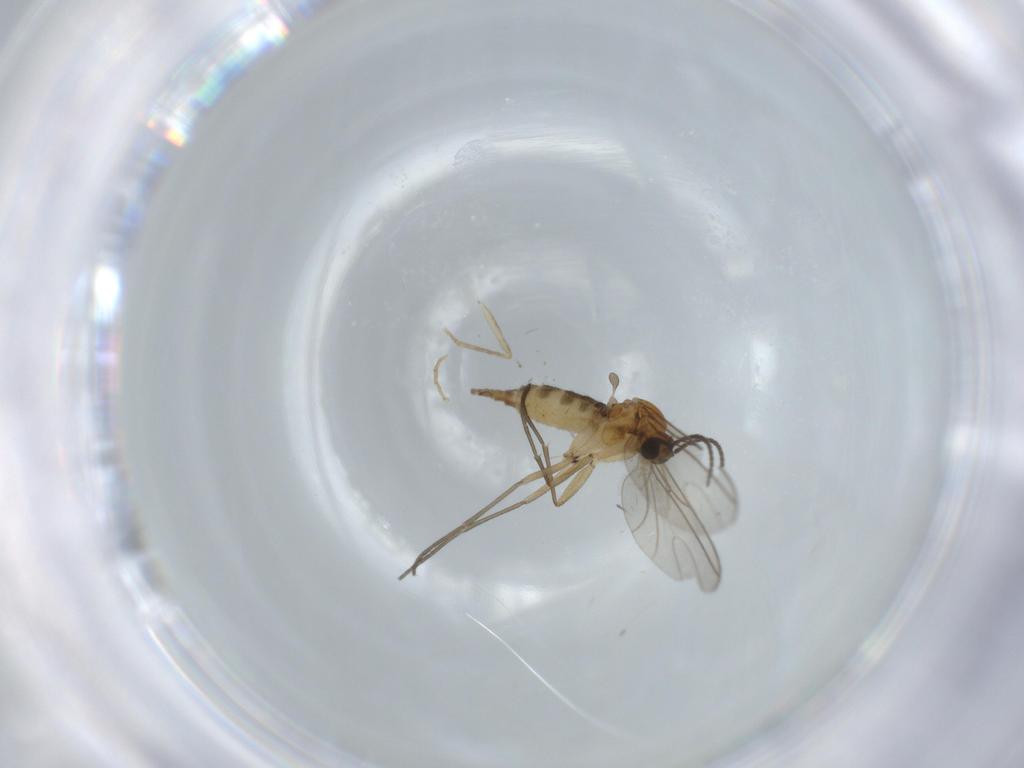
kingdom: Animalia
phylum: Arthropoda
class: Insecta
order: Diptera
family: Psychodidae
